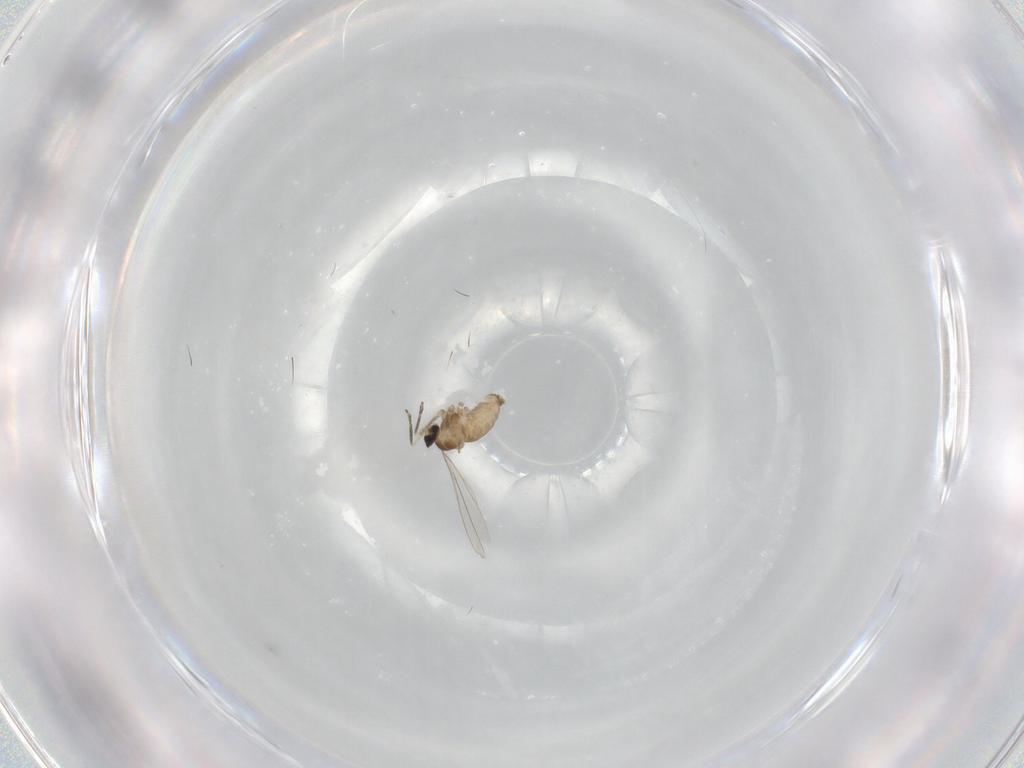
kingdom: Animalia
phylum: Arthropoda
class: Insecta
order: Diptera
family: Cecidomyiidae
